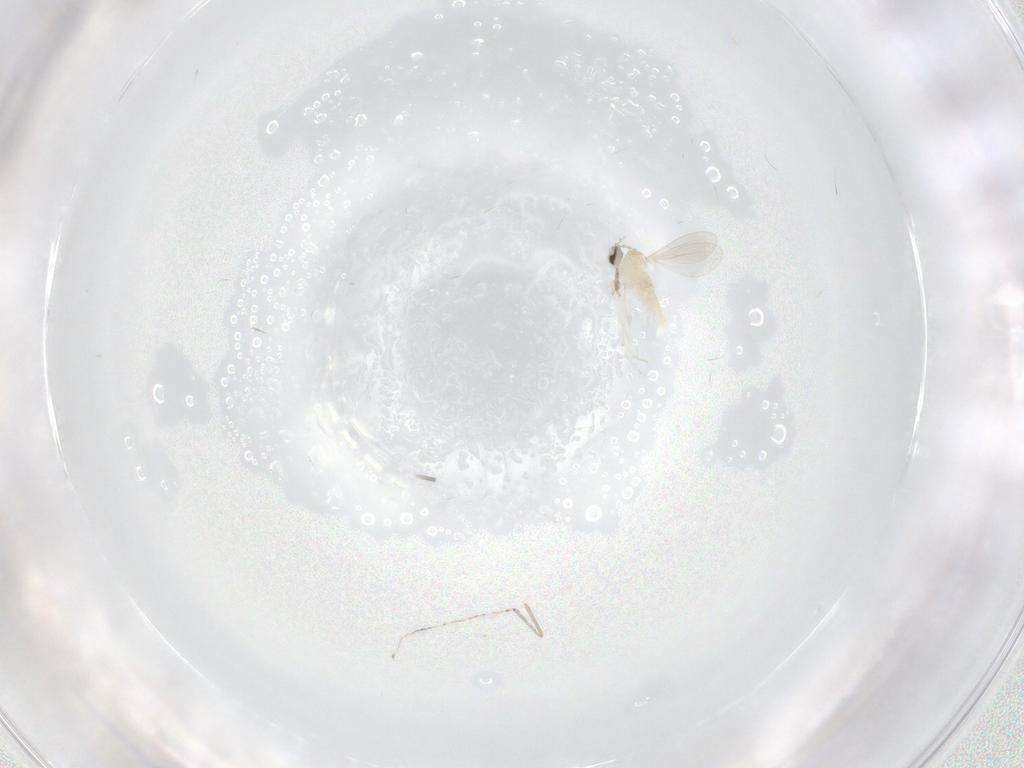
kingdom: Animalia
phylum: Arthropoda
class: Insecta
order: Diptera
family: Cecidomyiidae
